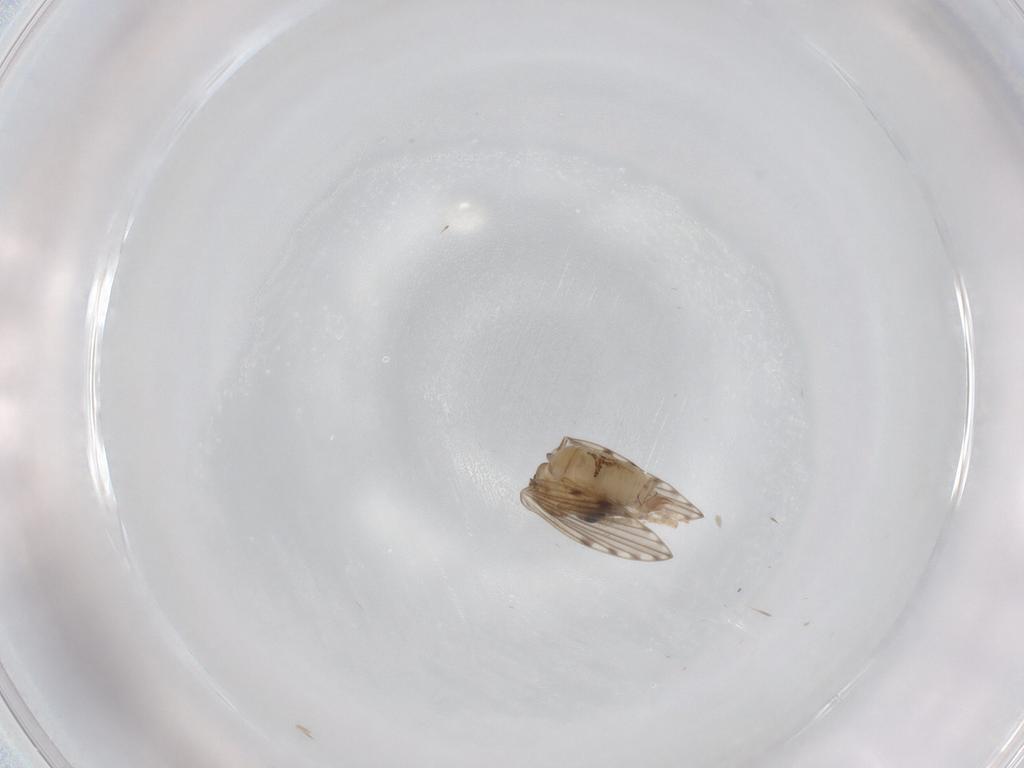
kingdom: Animalia
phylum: Arthropoda
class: Insecta
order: Diptera
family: Psychodidae
